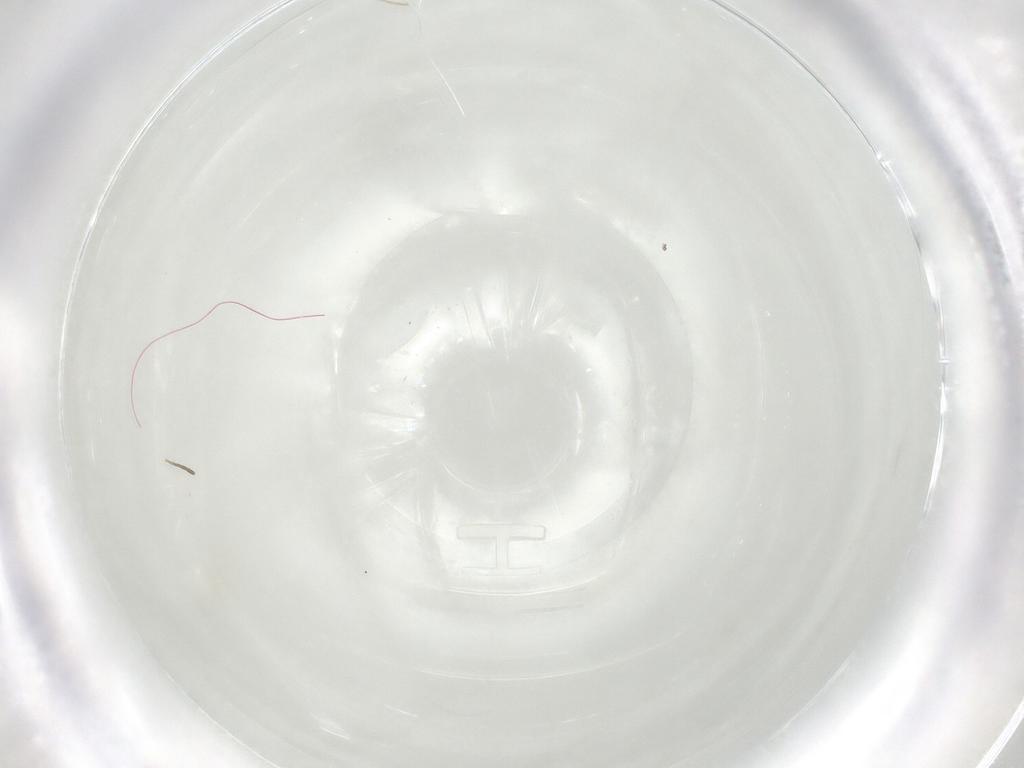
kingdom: Animalia
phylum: Arthropoda
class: Insecta
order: Diptera
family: Phoridae
